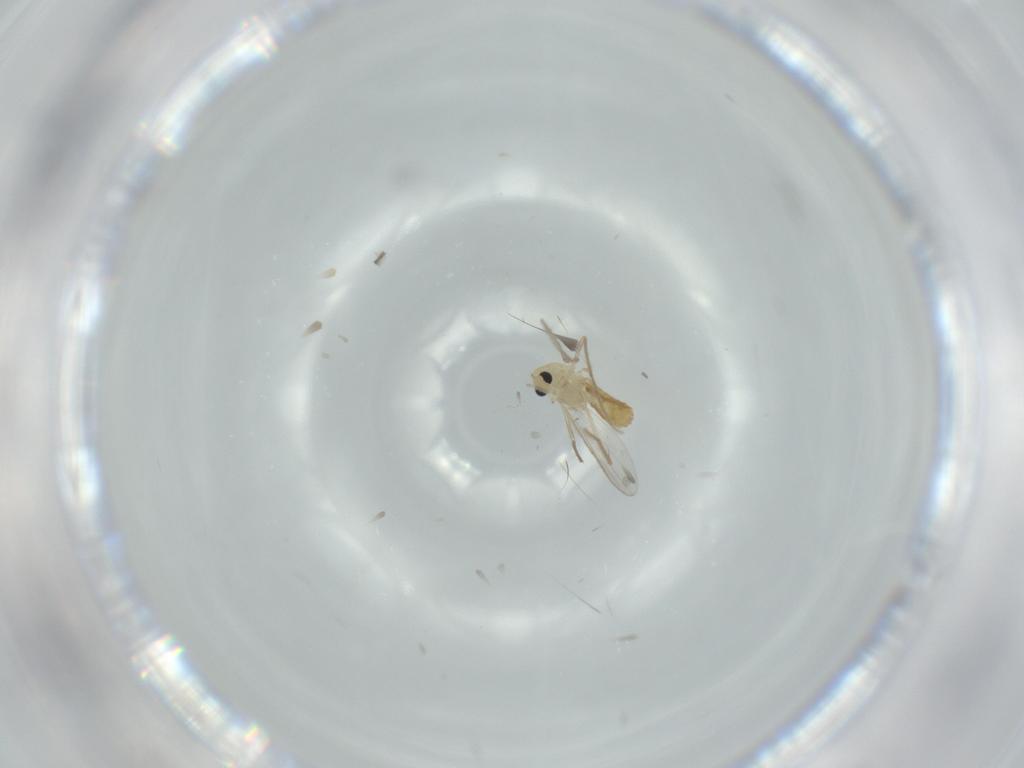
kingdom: Animalia
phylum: Arthropoda
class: Insecta
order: Diptera
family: Cecidomyiidae
